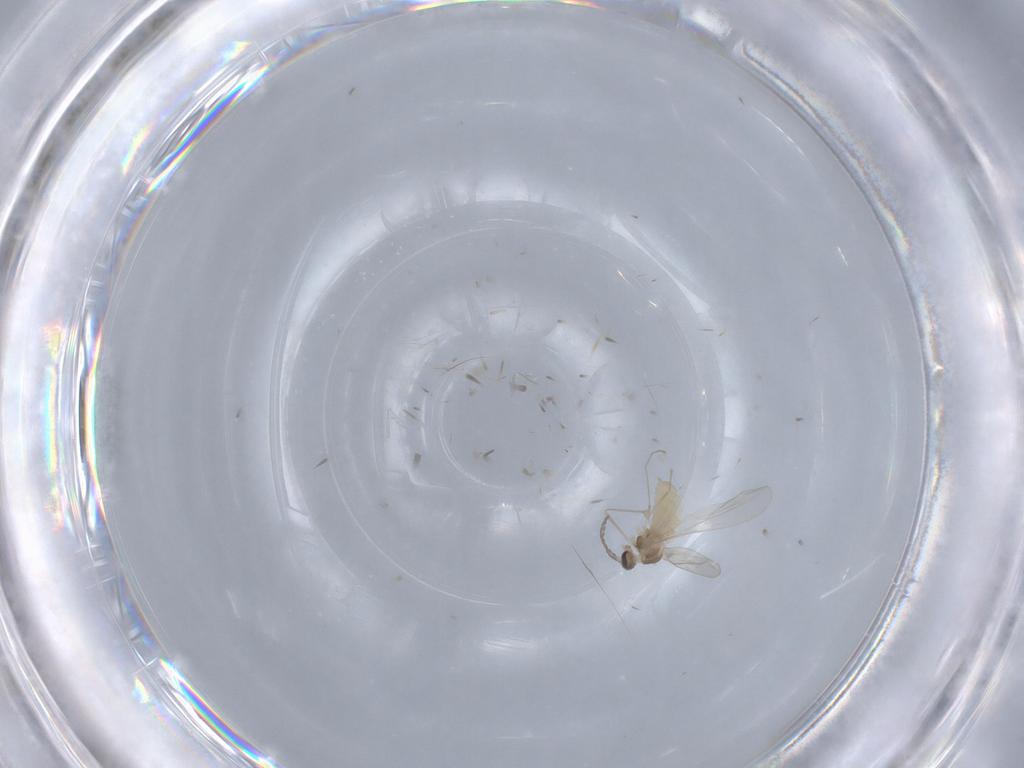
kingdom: Animalia
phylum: Arthropoda
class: Insecta
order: Diptera
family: Cecidomyiidae
